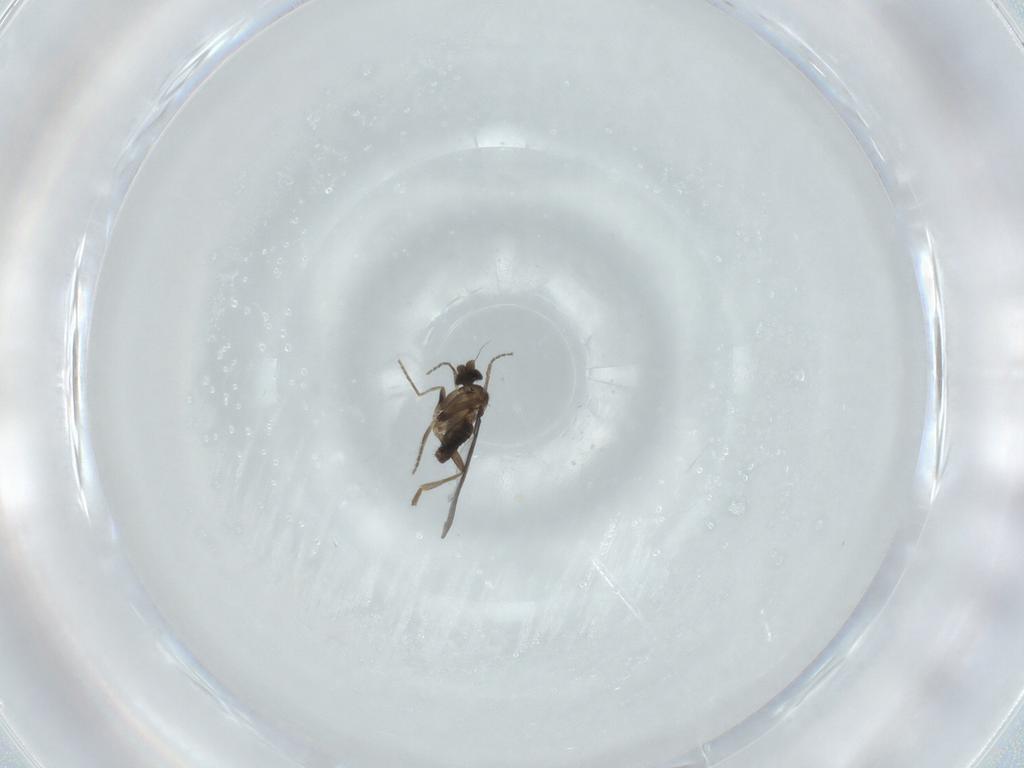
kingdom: Animalia
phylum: Arthropoda
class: Insecta
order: Diptera
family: Phoridae
